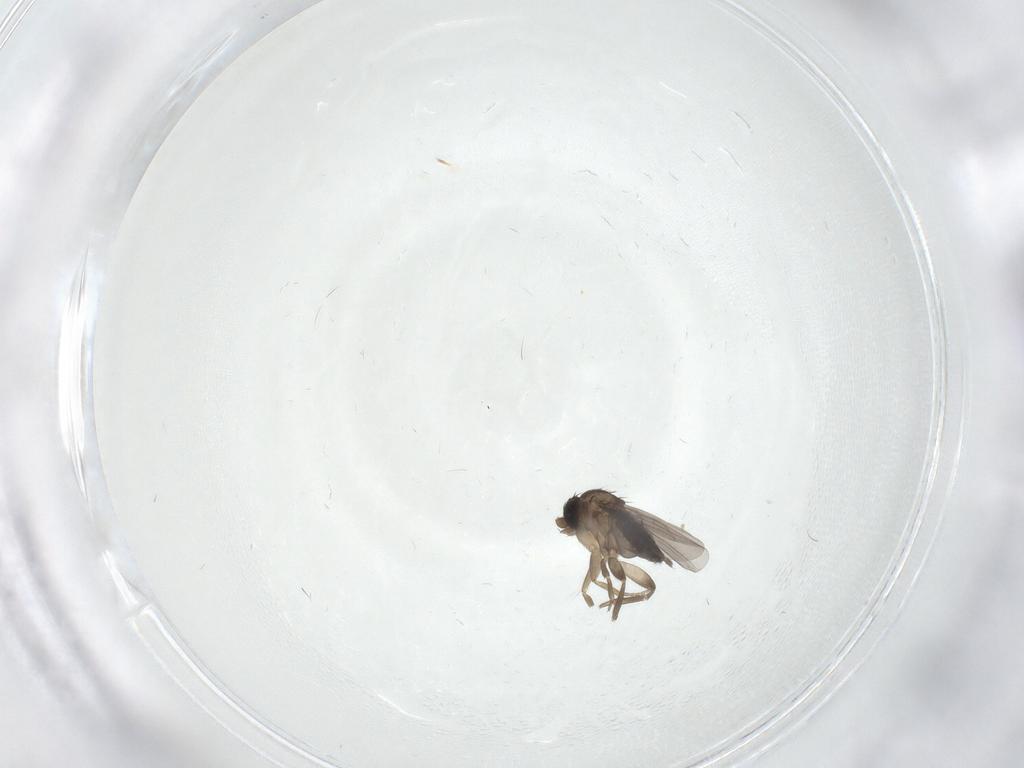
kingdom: Animalia
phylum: Arthropoda
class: Insecta
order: Diptera
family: Phoridae
